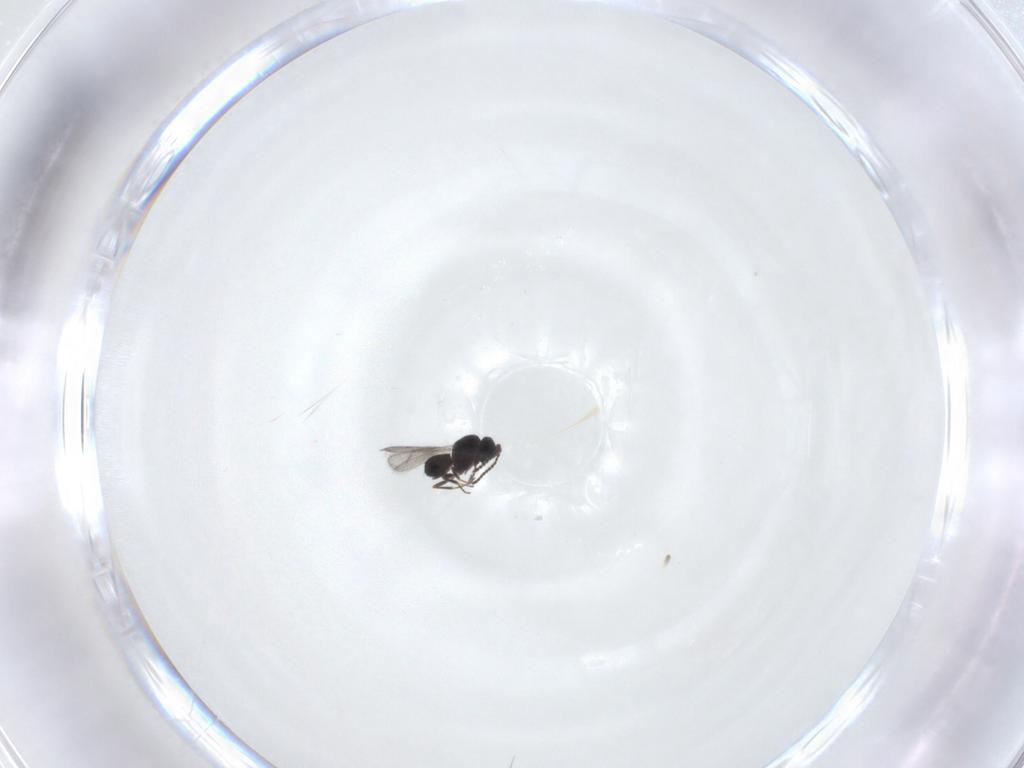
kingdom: Animalia
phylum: Arthropoda
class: Insecta
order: Hymenoptera
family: Scelionidae
